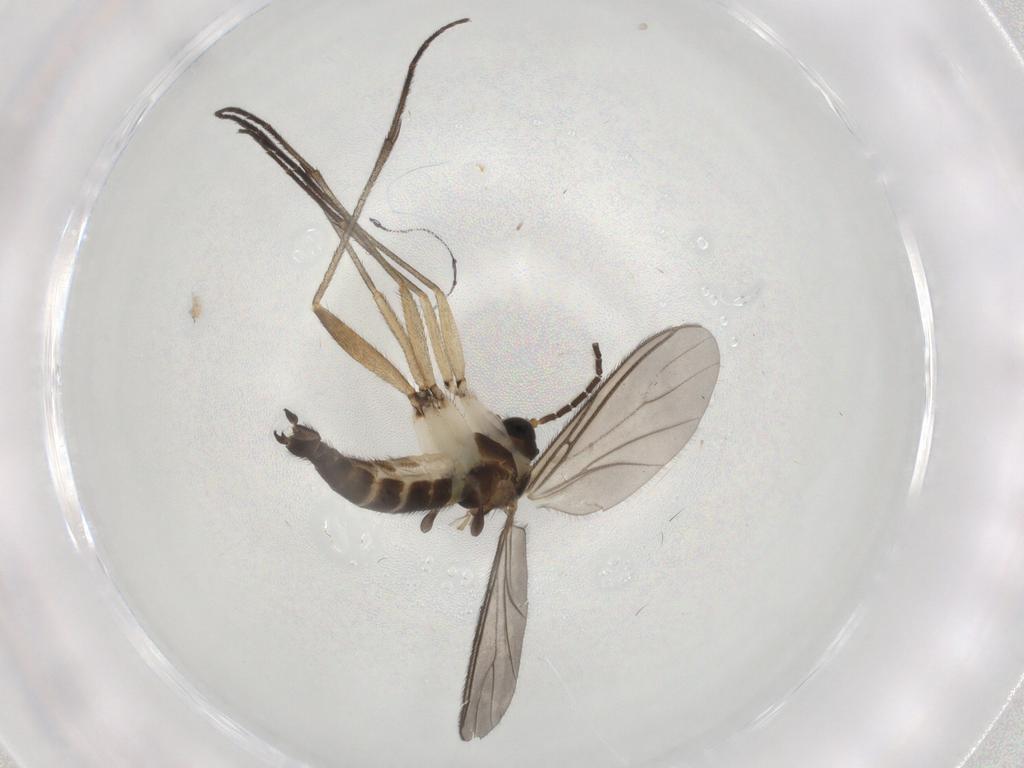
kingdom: Animalia
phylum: Arthropoda
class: Insecta
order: Diptera
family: Sciaridae
